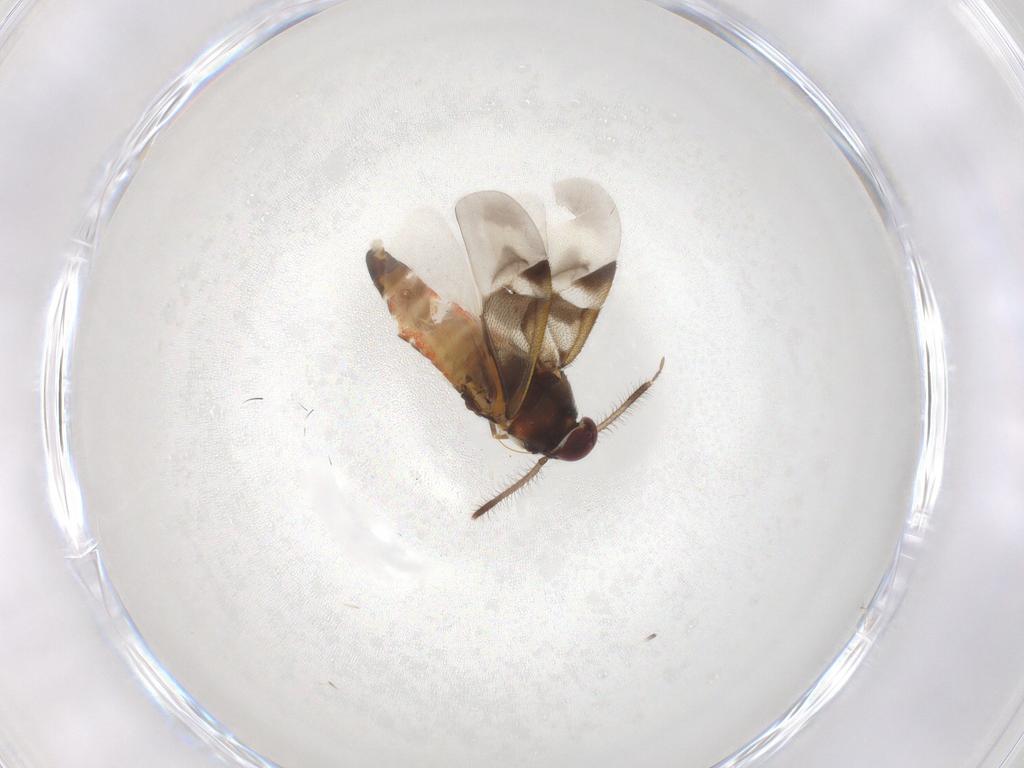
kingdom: Animalia
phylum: Arthropoda
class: Insecta
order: Hemiptera
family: Miridae
